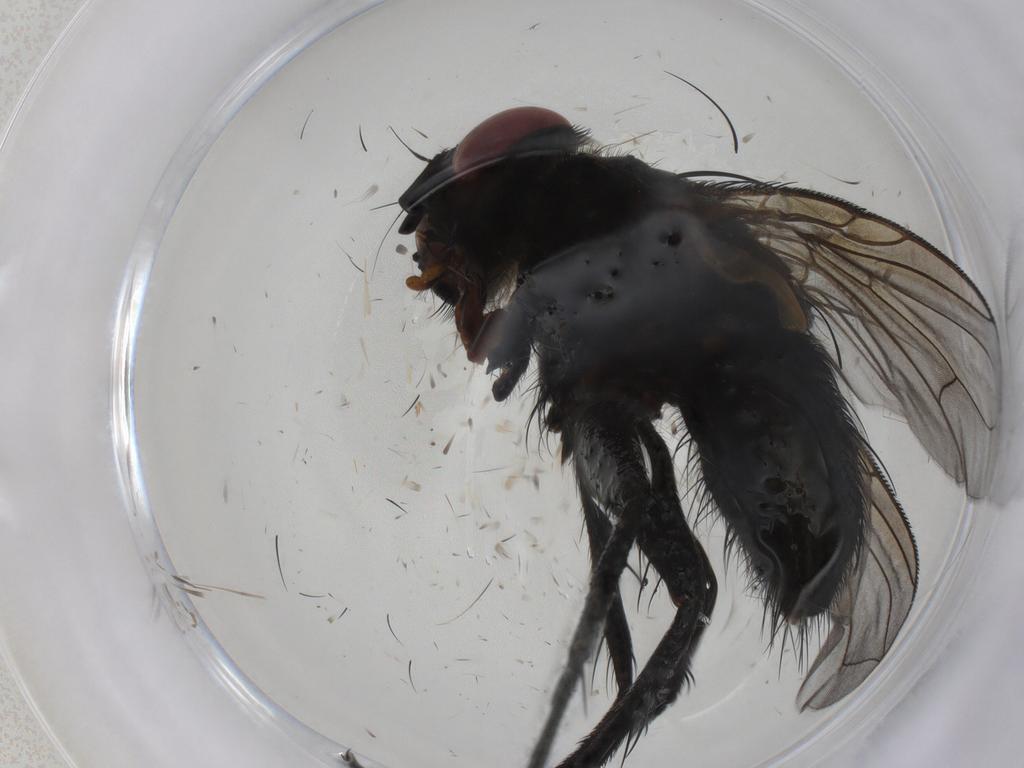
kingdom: Animalia
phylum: Arthropoda
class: Insecta
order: Diptera
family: Tachinidae
